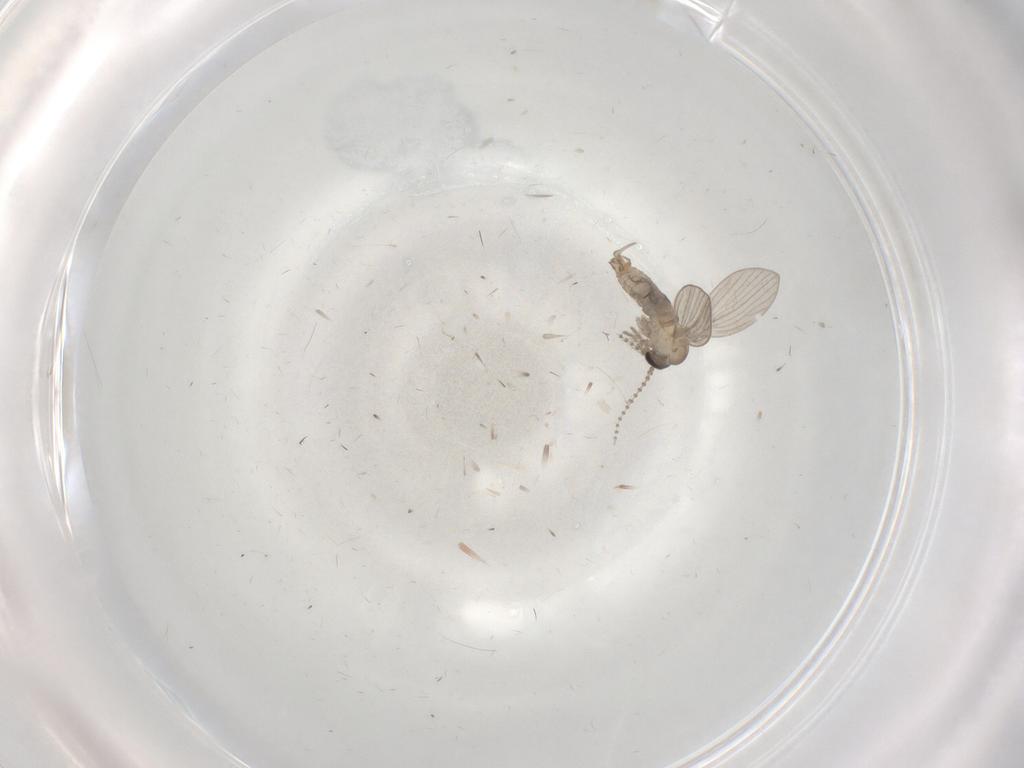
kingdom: Animalia
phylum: Arthropoda
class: Insecta
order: Diptera
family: Psychodidae
